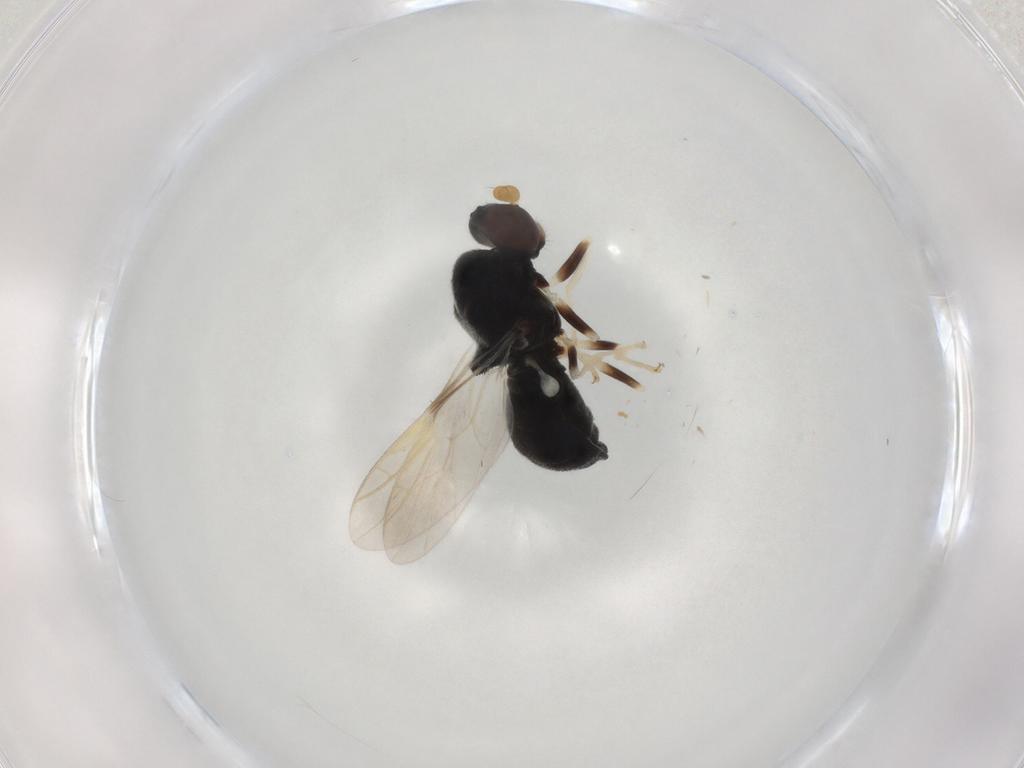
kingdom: Animalia
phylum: Arthropoda
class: Insecta
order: Diptera
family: Stratiomyidae
